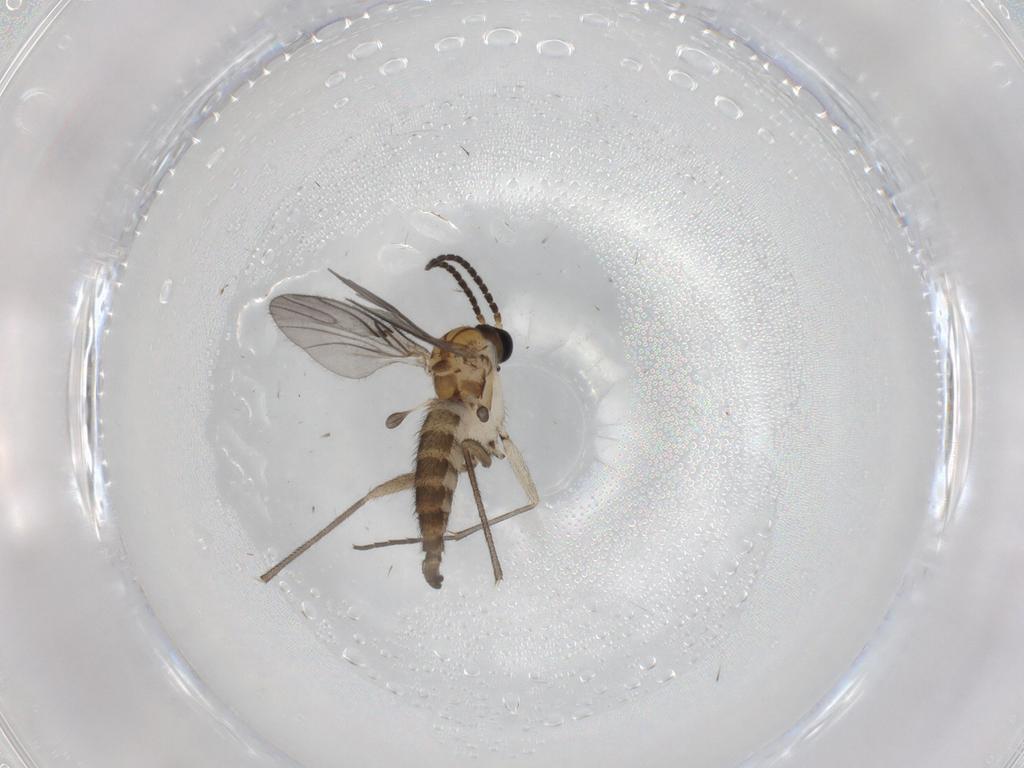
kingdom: Animalia
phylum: Arthropoda
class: Insecta
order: Diptera
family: Sciaridae
